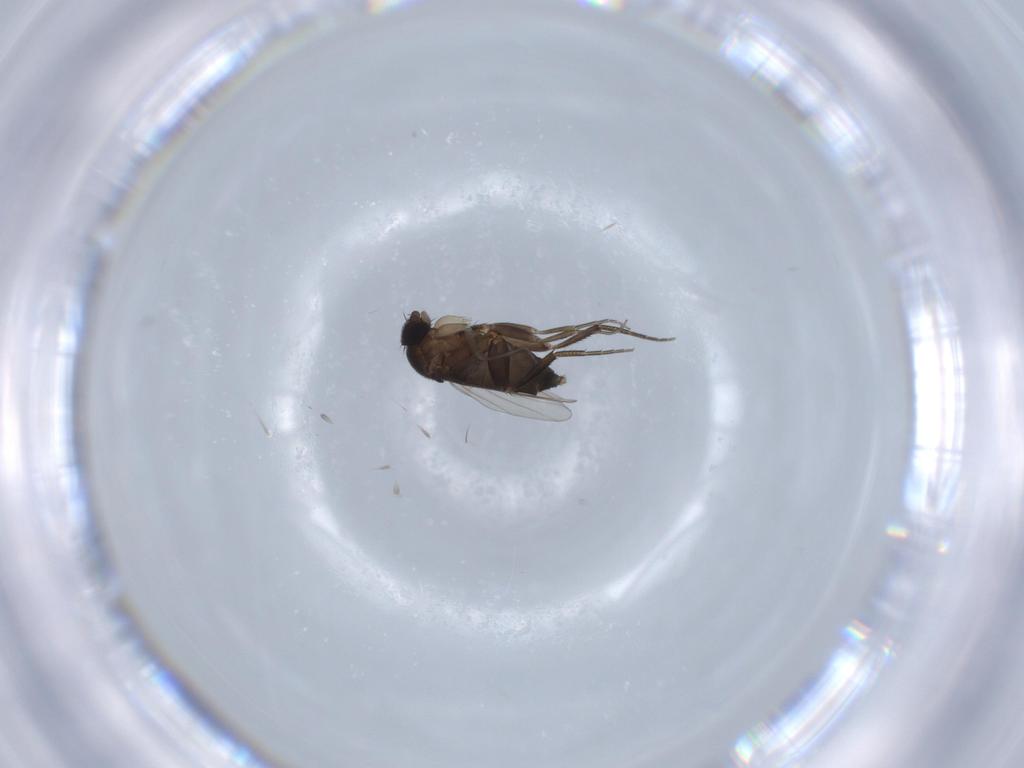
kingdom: Animalia
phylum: Arthropoda
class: Insecta
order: Diptera
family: Phoridae
